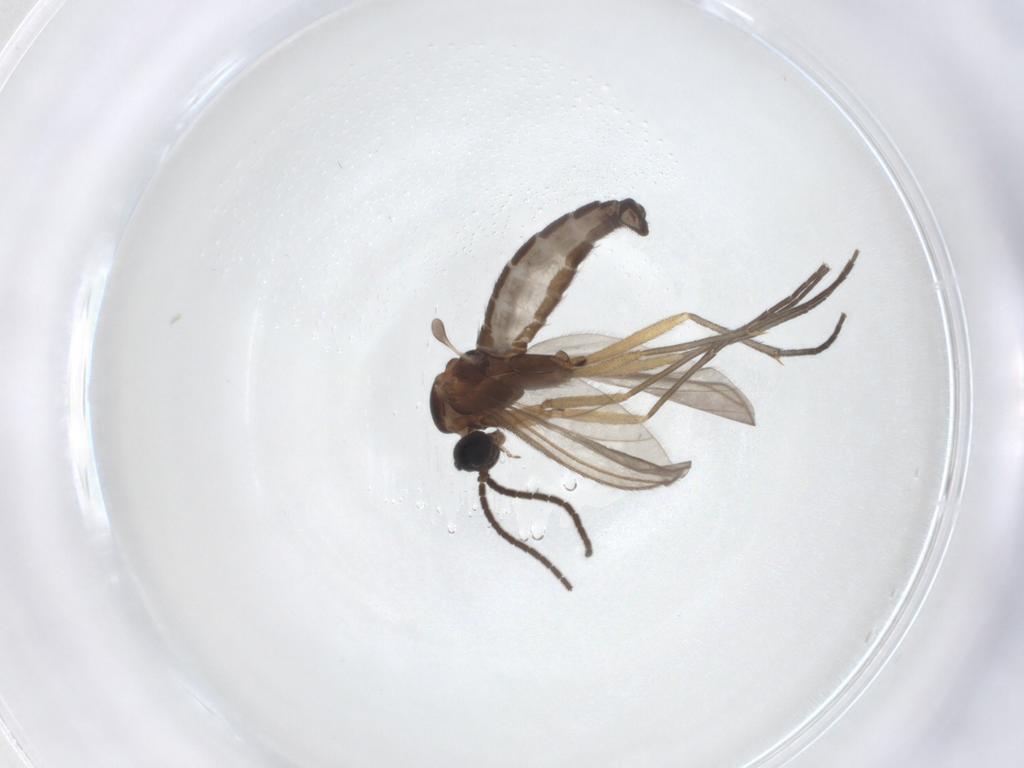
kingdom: Animalia
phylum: Arthropoda
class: Insecta
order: Diptera
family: Sciaridae
